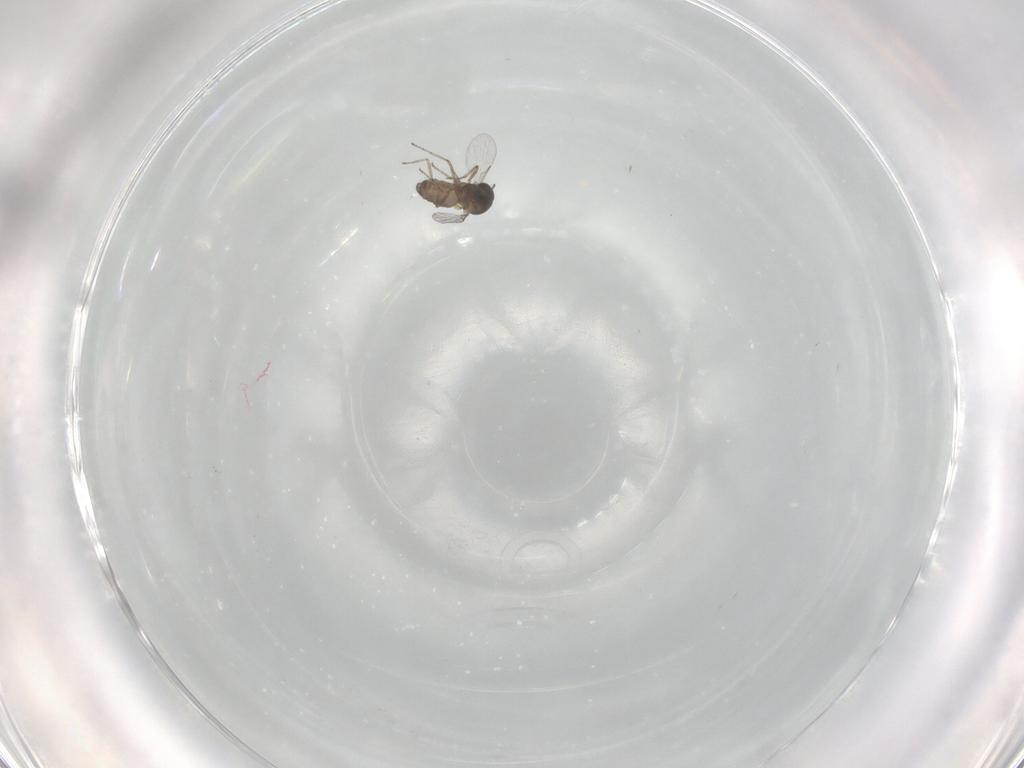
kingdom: Animalia
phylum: Arthropoda
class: Insecta
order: Diptera
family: Ceratopogonidae
